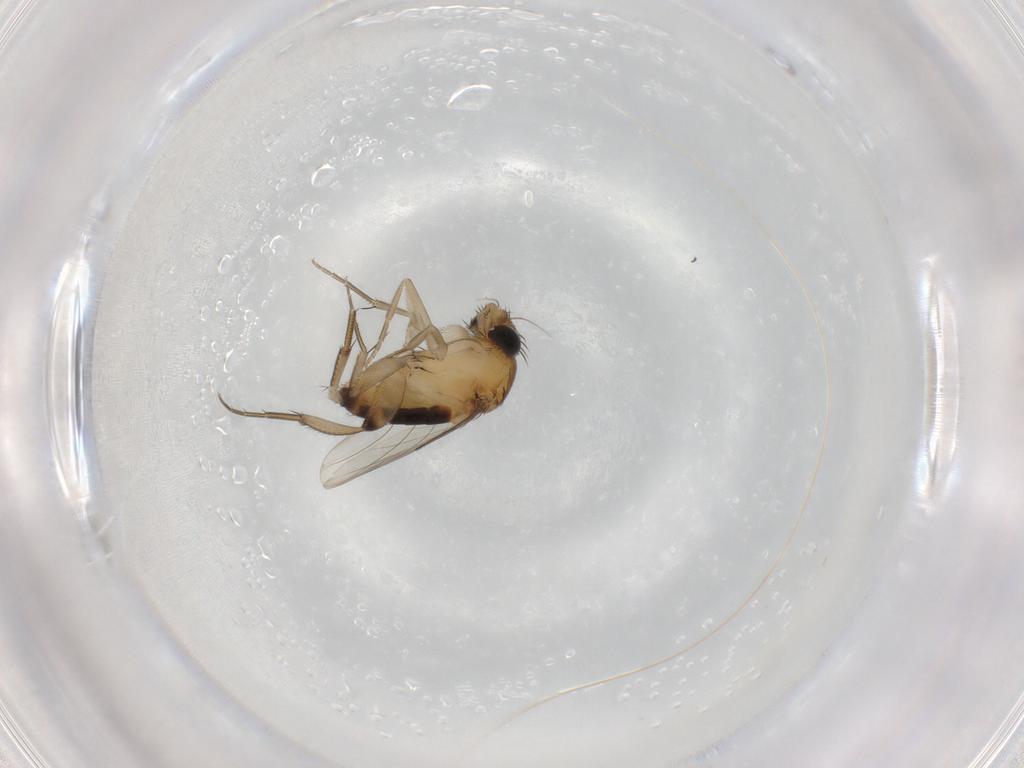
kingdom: Animalia
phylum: Arthropoda
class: Insecta
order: Diptera
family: Phoridae
